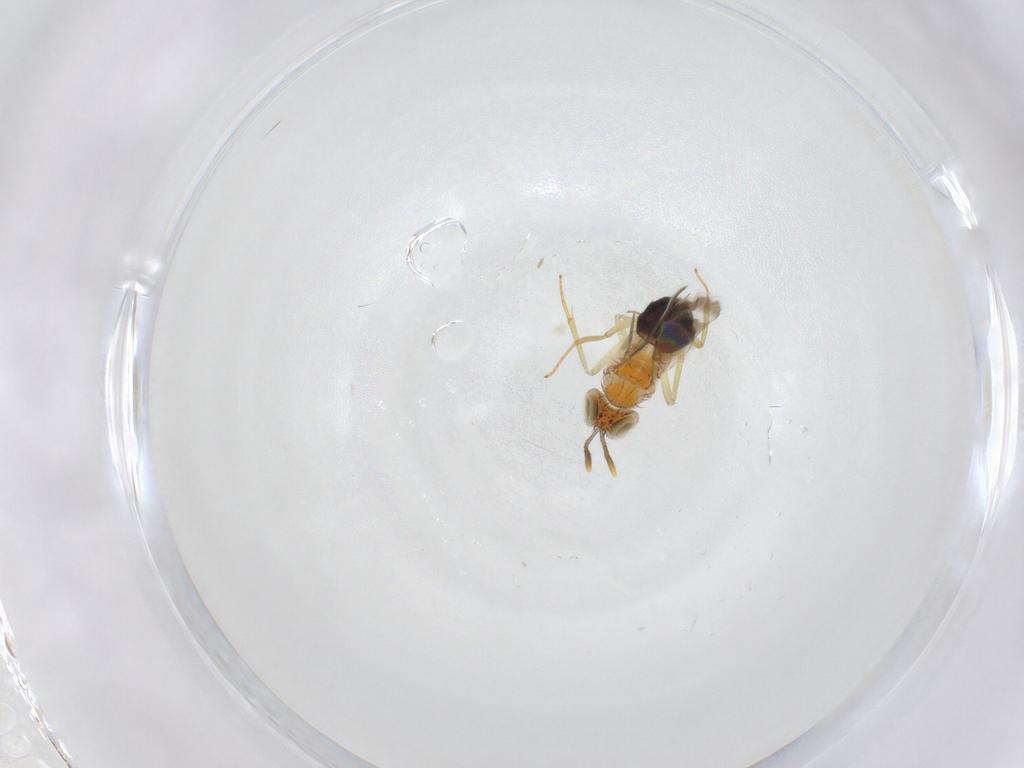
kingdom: Animalia
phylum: Arthropoda
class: Insecta
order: Hymenoptera
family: Aphelinidae
